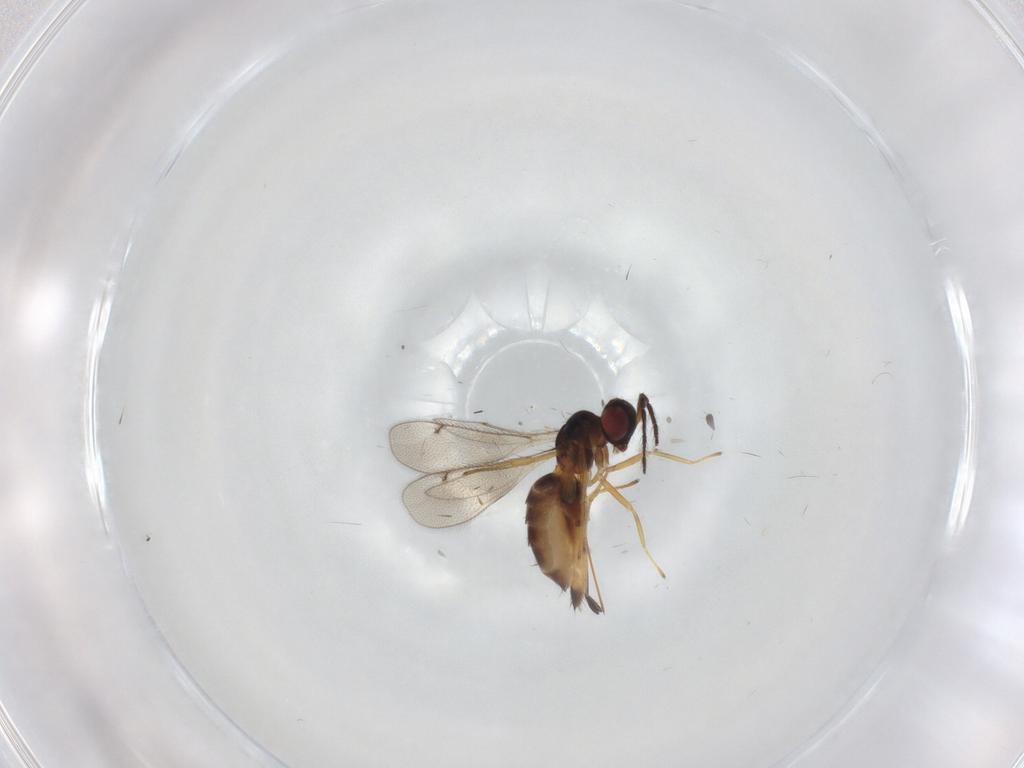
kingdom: Animalia
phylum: Arthropoda
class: Insecta
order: Hymenoptera
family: Eulophidae
